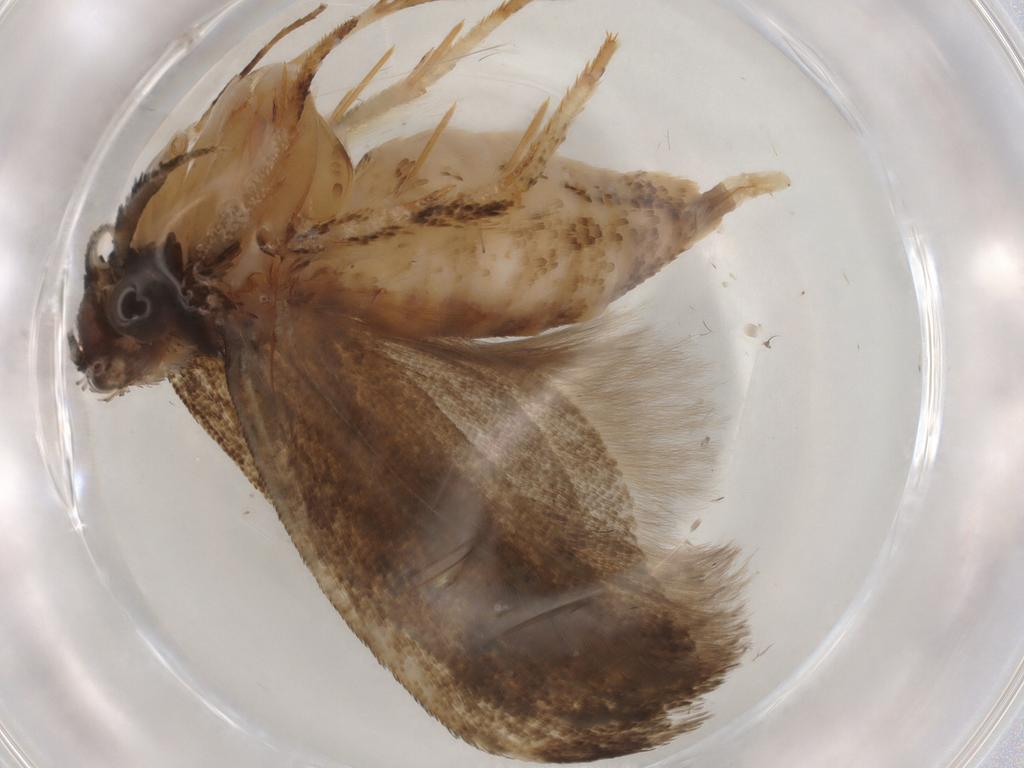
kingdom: Animalia
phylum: Arthropoda
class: Insecta
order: Lepidoptera
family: Gelechiidae
